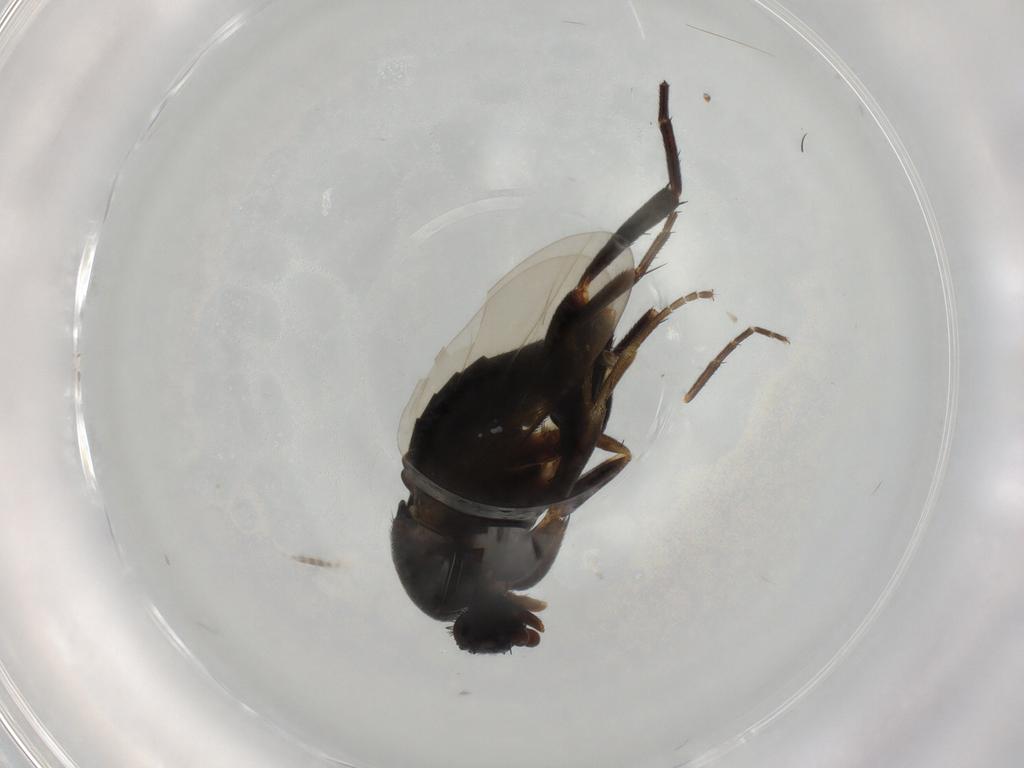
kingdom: Animalia
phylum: Arthropoda
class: Insecta
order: Diptera
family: Phoridae
